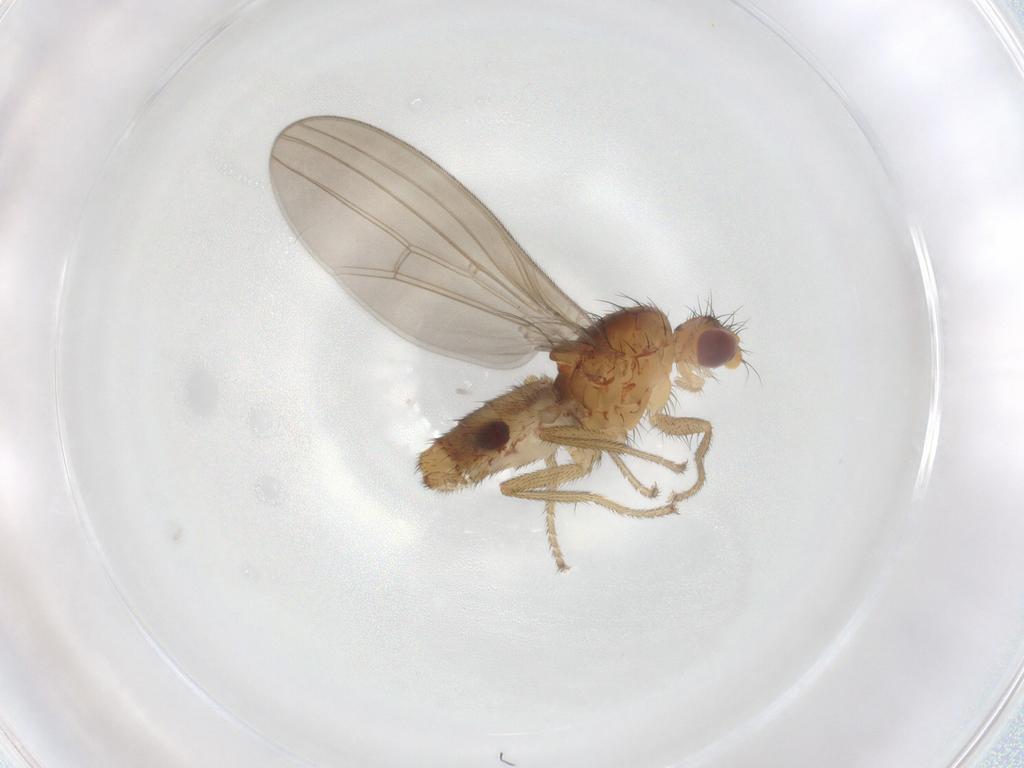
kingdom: Animalia
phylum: Arthropoda
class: Insecta
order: Diptera
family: Natalimyzidae
